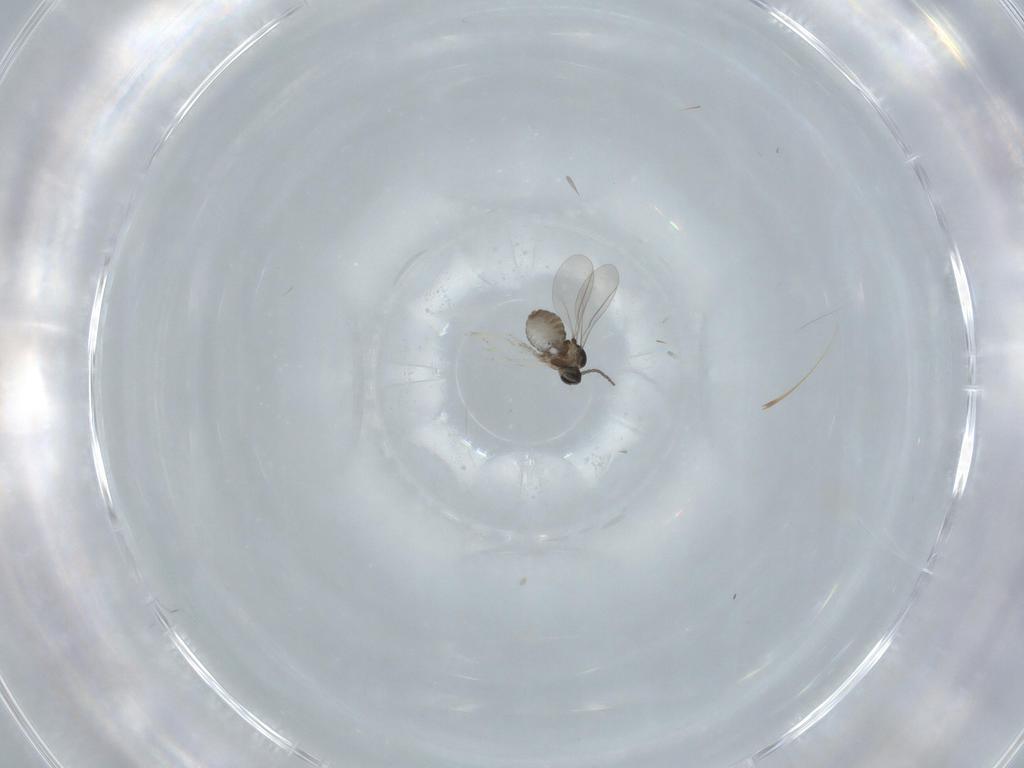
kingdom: Animalia
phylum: Arthropoda
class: Insecta
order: Diptera
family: Cecidomyiidae
